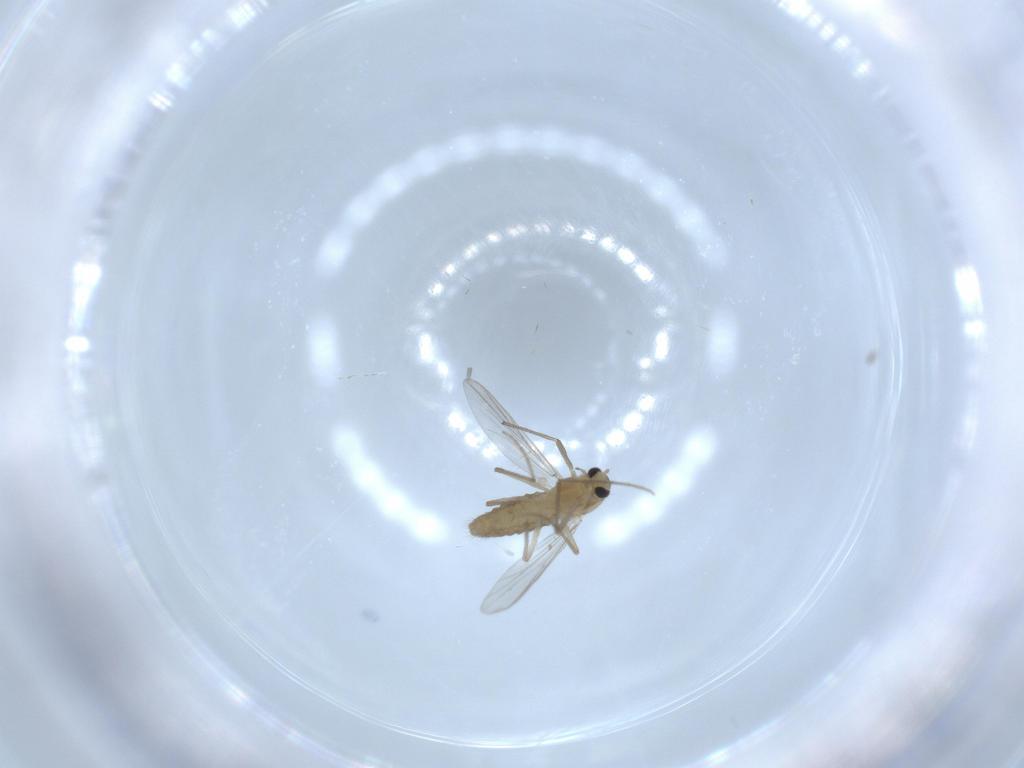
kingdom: Animalia
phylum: Arthropoda
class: Insecta
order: Diptera
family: Chironomidae
